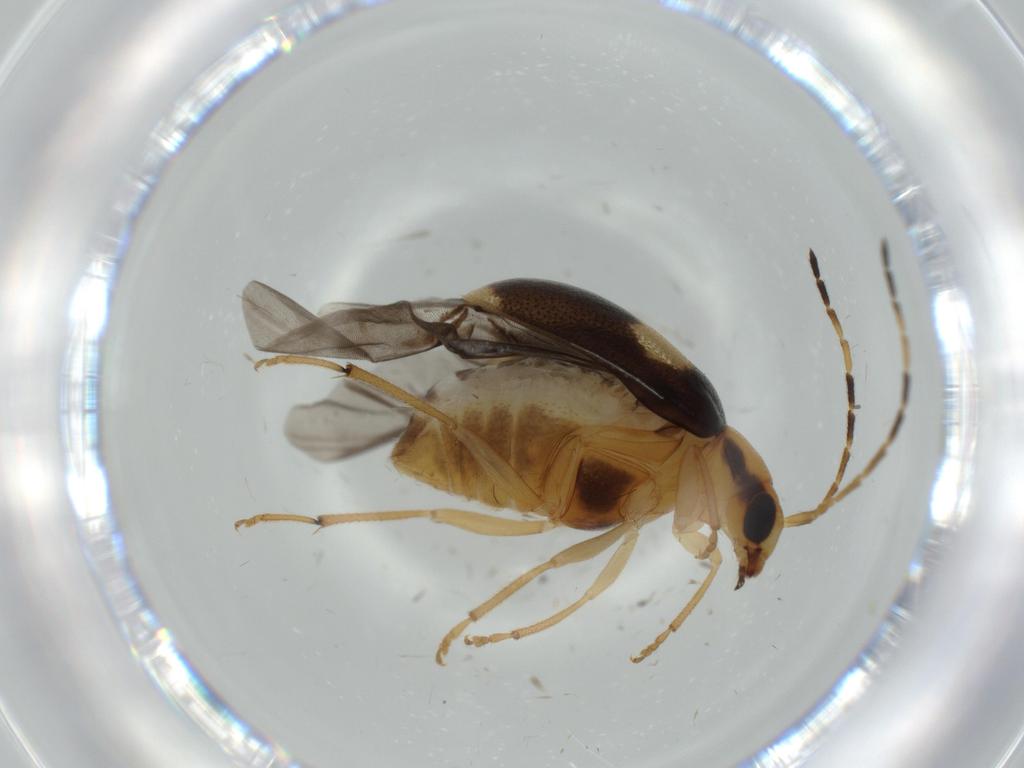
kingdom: Animalia
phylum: Arthropoda
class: Insecta
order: Coleoptera
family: Chrysomelidae
